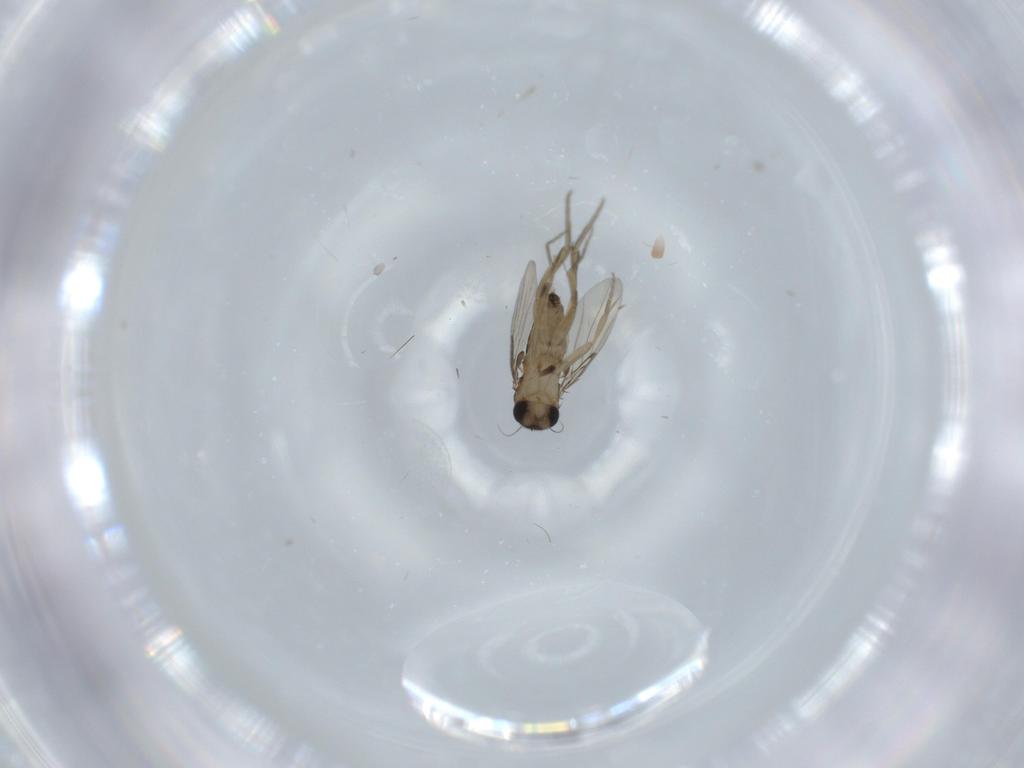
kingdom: Animalia
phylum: Arthropoda
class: Insecta
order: Diptera
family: Phoridae
